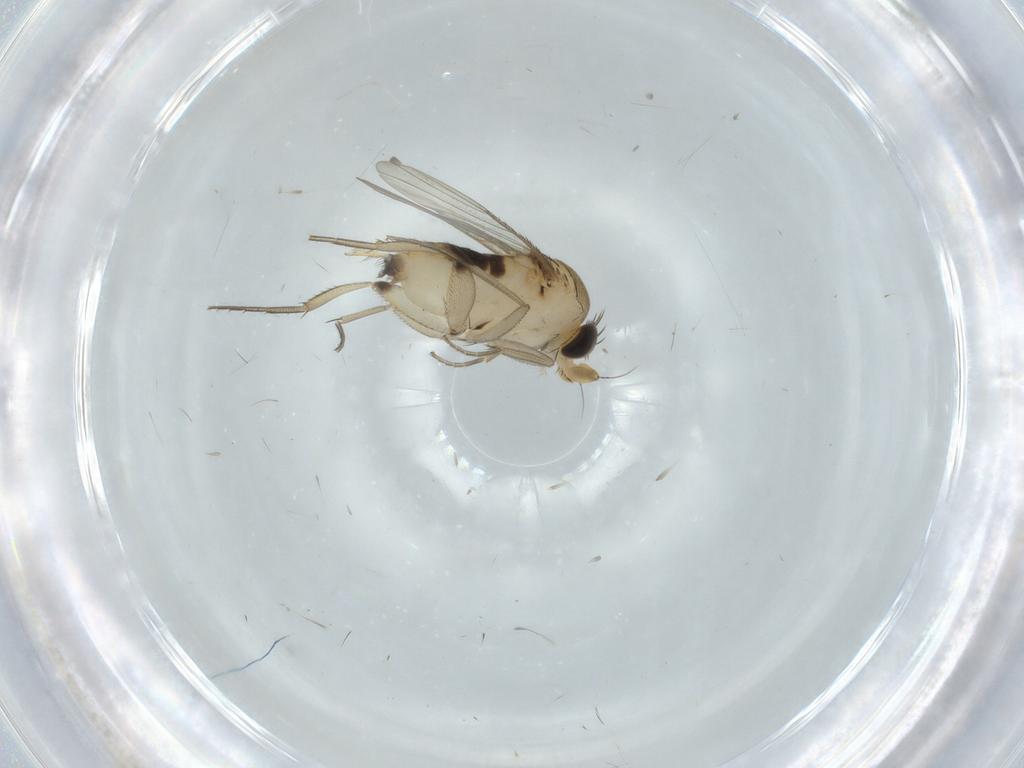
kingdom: Animalia
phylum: Arthropoda
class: Insecta
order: Diptera
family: Phoridae
